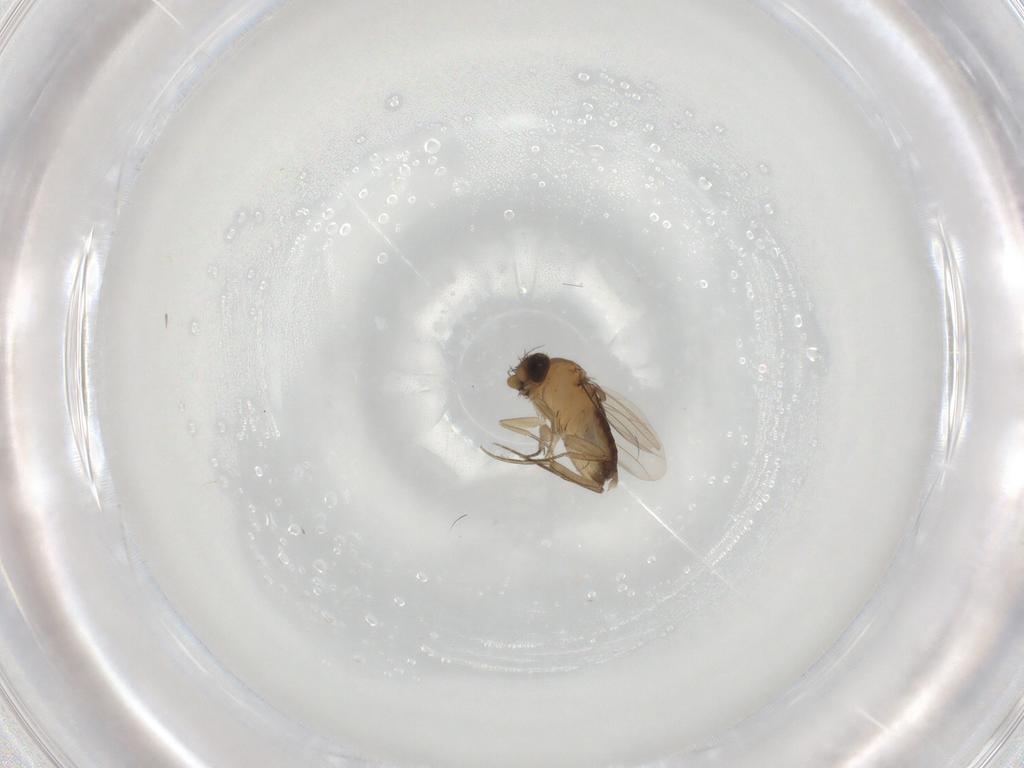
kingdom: Animalia
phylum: Arthropoda
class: Insecta
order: Diptera
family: Phoridae
